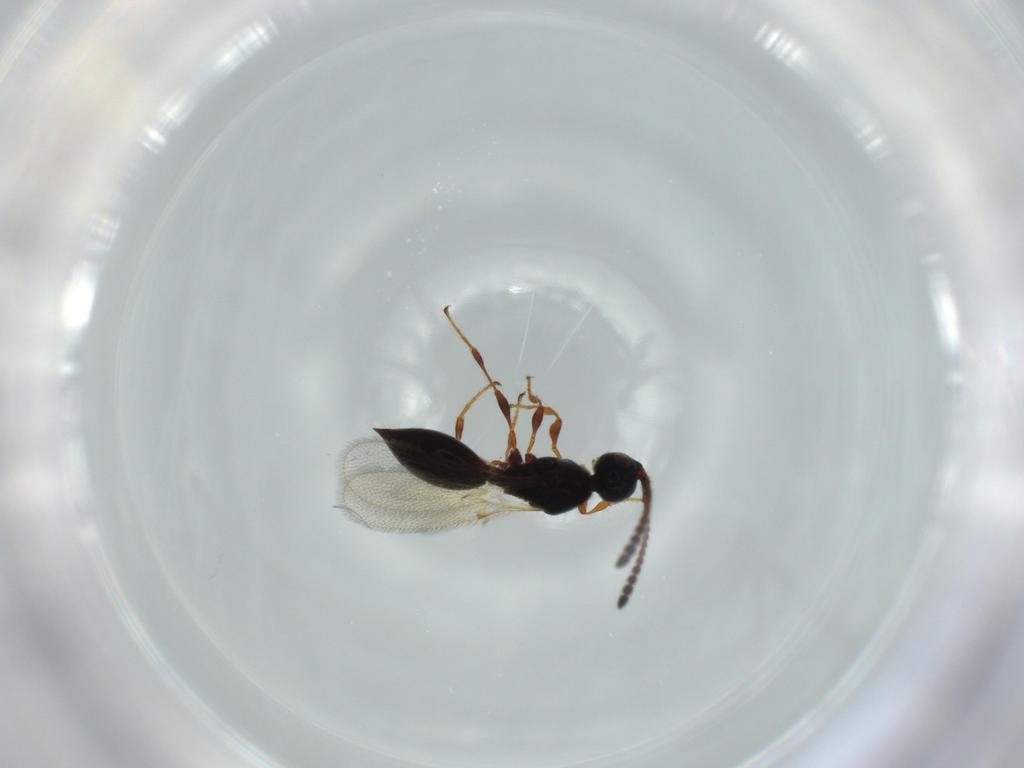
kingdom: Animalia
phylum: Arthropoda
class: Insecta
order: Hymenoptera
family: Diapriidae
